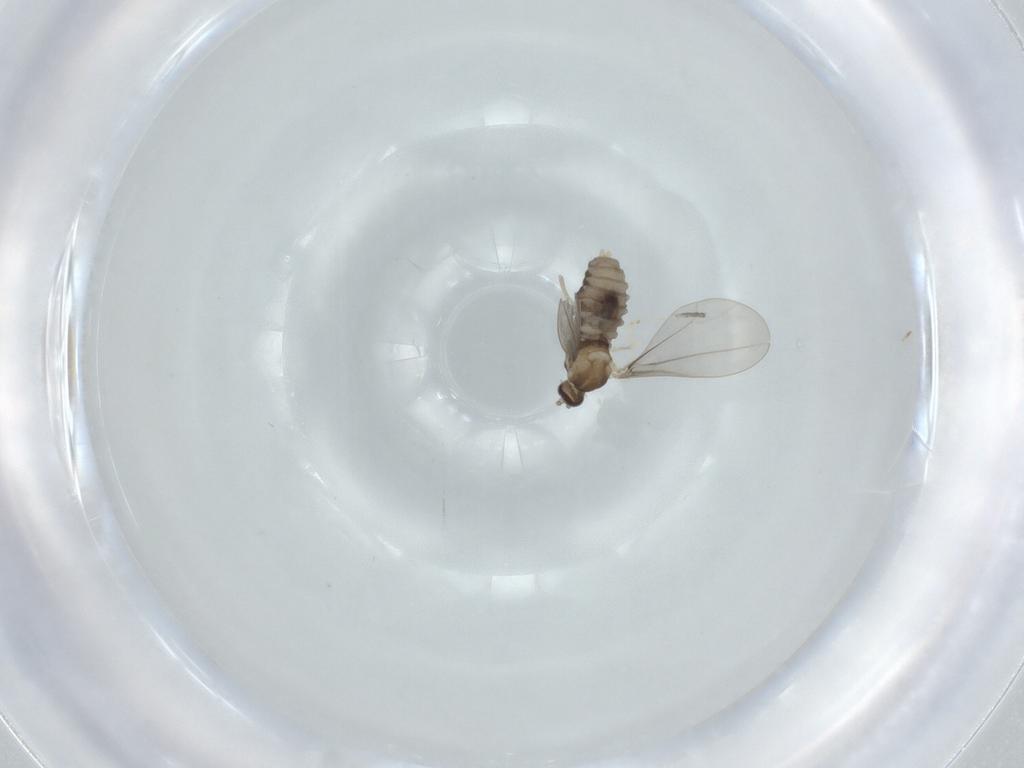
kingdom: Animalia
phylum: Arthropoda
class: Insecta
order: Diptera
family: Cecidomyiidae
